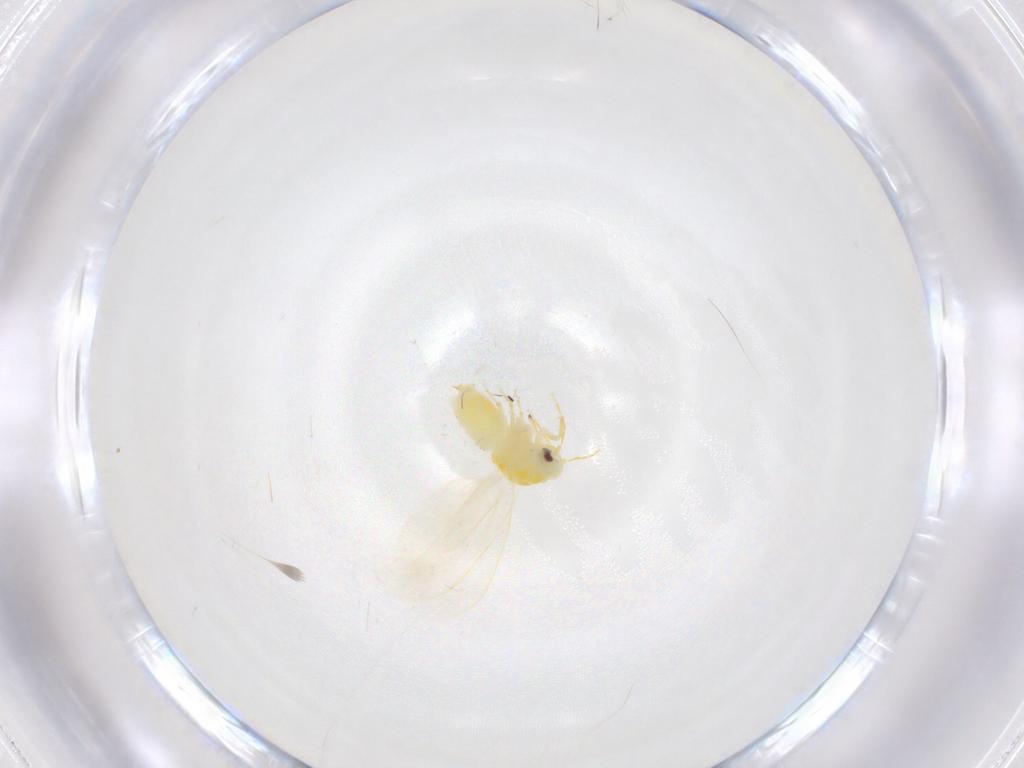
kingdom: Animalia
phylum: Arthropoda
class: Insecta
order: Hemiptera
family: Aleyrodidae
